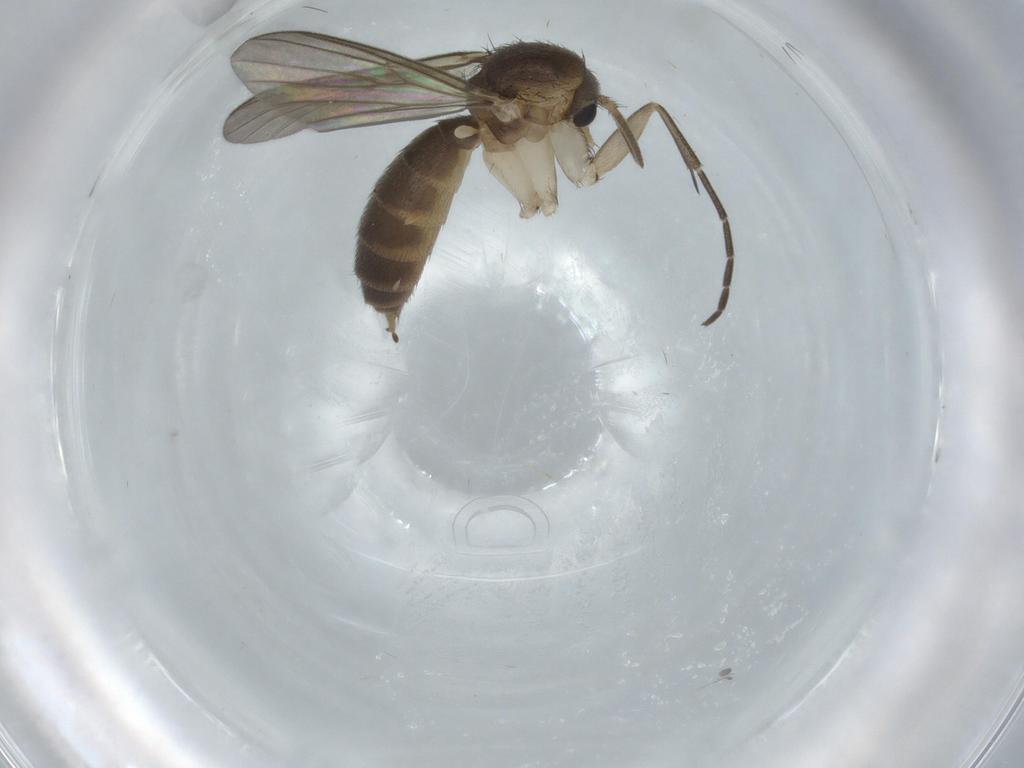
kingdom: Animalia
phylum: Arthropoda
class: Insecta
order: Diptera
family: Mycetophilidae
